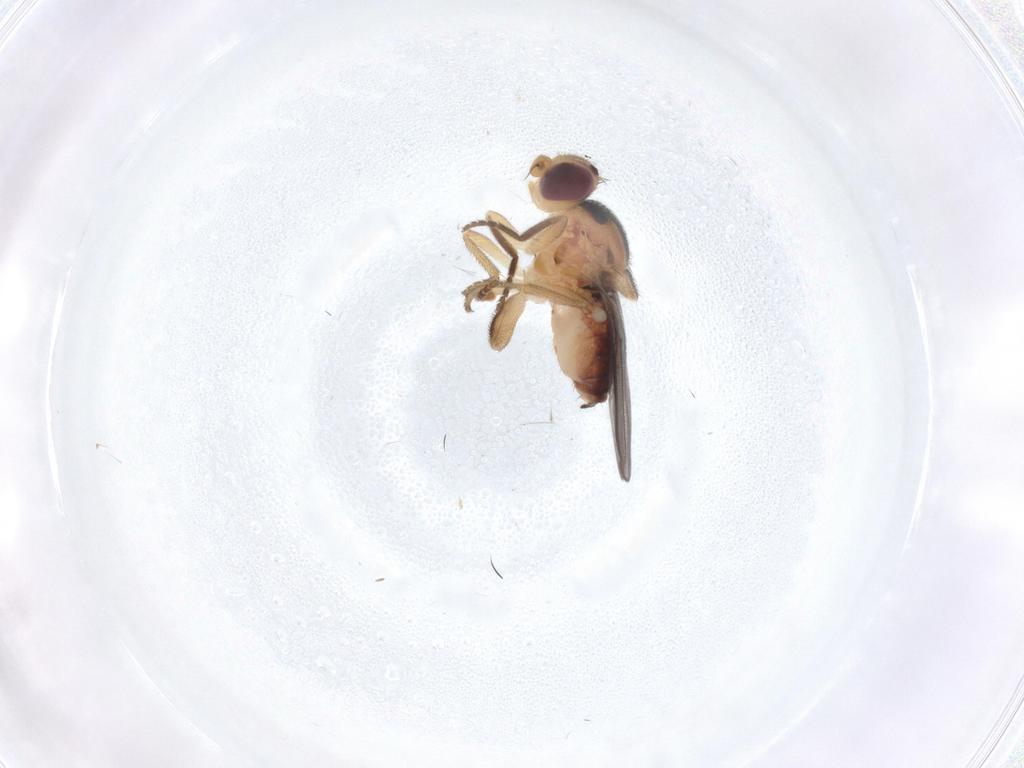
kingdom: Animalia
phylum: Arthropoda
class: Insecta
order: Diptera
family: Chloropidae
